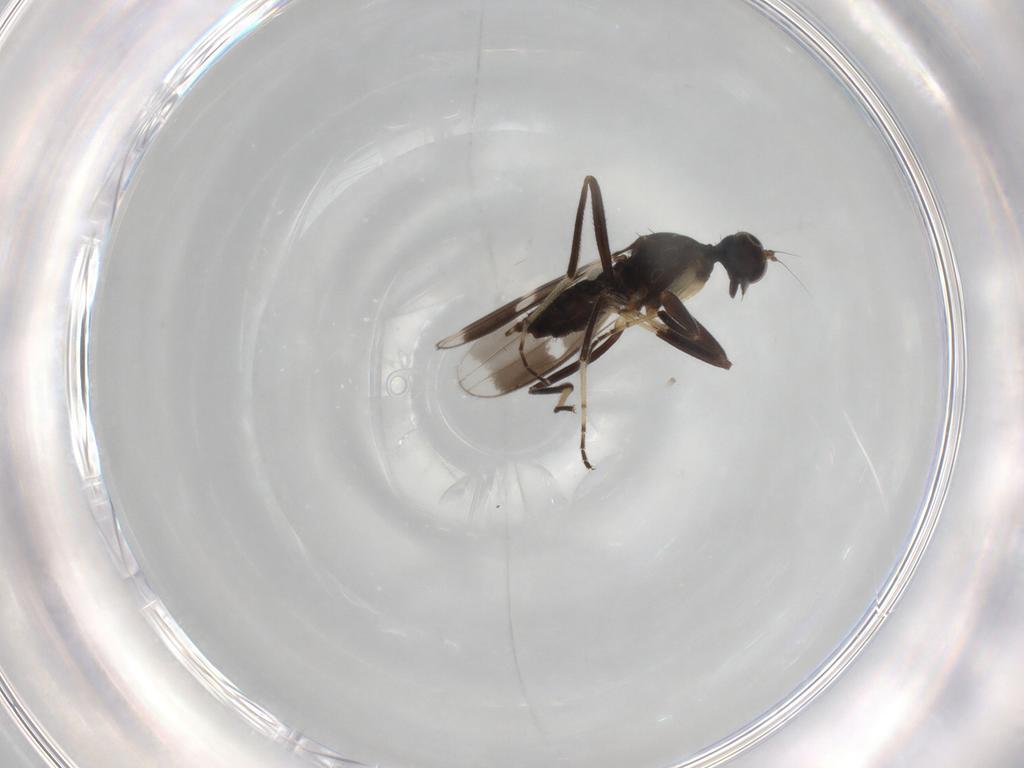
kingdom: Animalia
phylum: Arthropoda
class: Insecta
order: Diptera
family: Hybotidae
